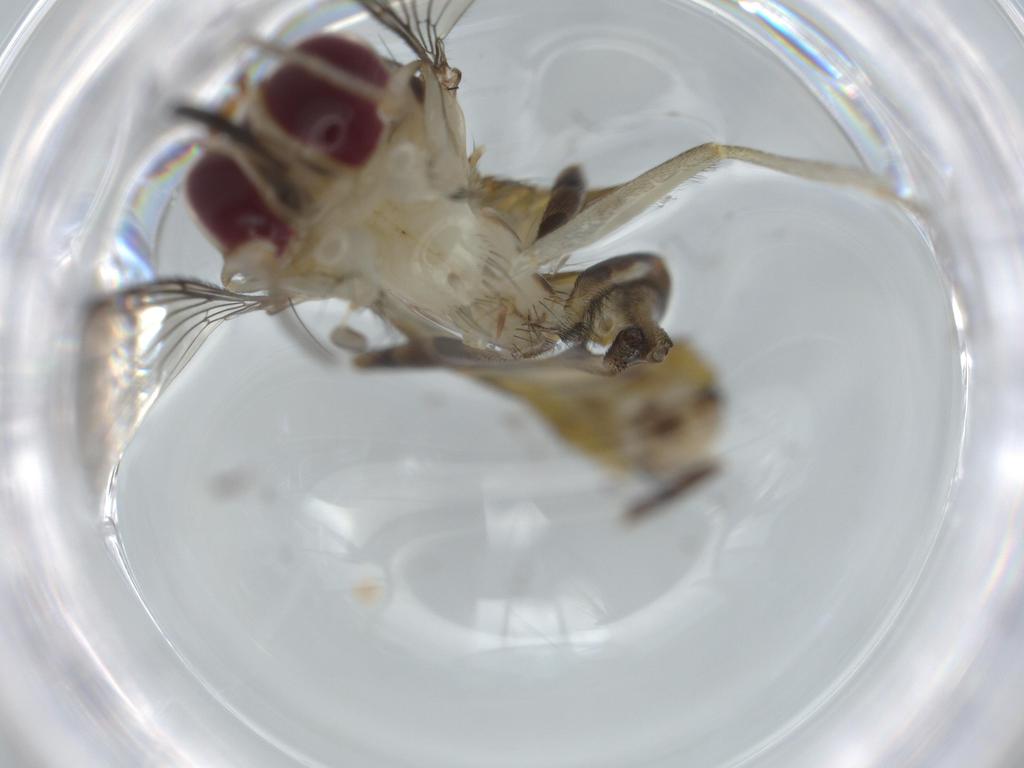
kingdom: Animalia
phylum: Arthropoda
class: Insecta
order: Diptera
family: Conopidae
